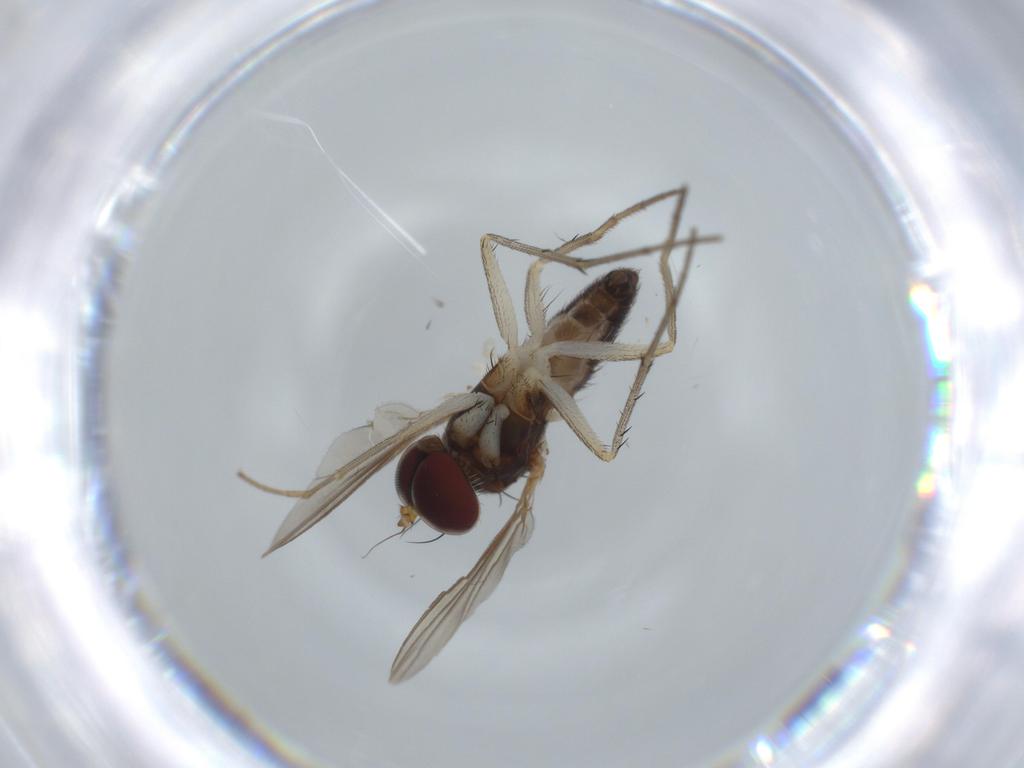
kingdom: Animalia
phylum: Arthropoda
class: Insecta
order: Diptera
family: Dolichopodidae
